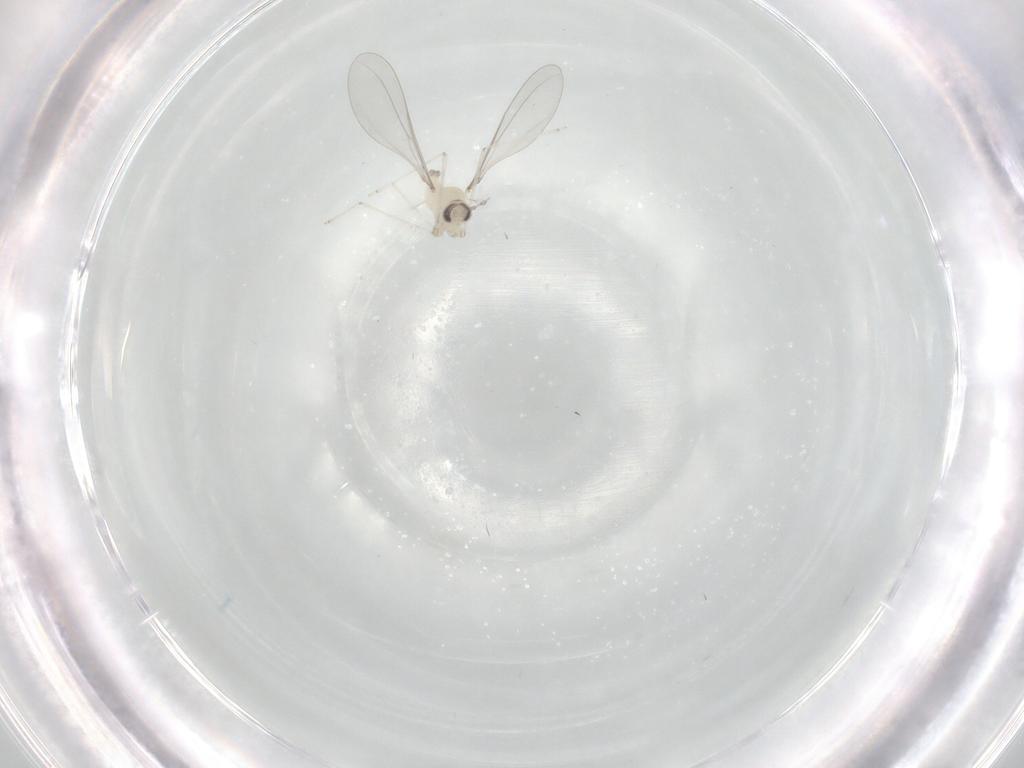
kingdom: Animalia
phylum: Arthropoda
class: Insecta
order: Diptera
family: Cecidomyiidae
